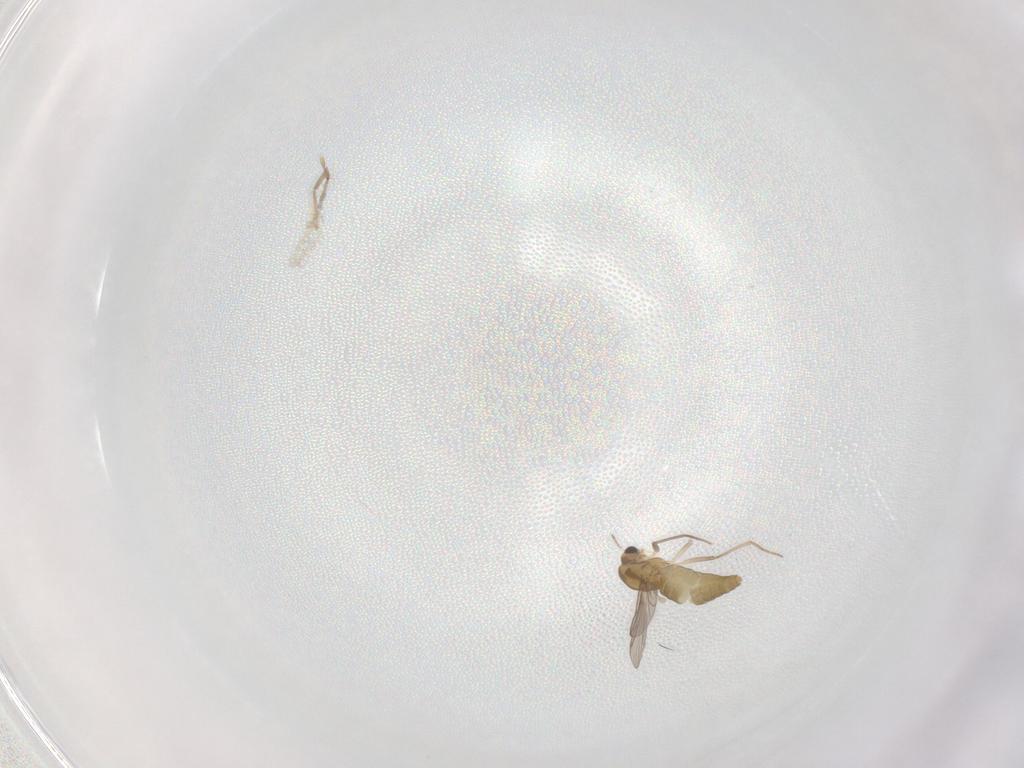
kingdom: Animalia
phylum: Arthropoda
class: Insecta
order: Diptera
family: Chironomidae
